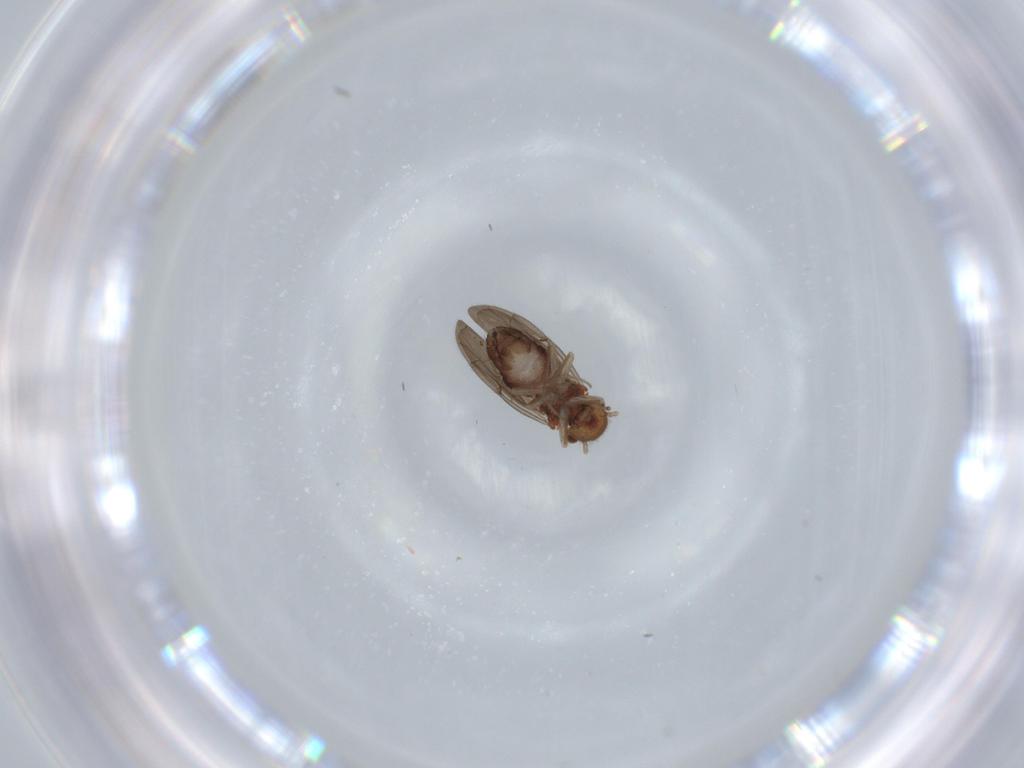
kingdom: Animalia
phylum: Arthropoda
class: Insecta
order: Psocodea
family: Ectopsocidae
